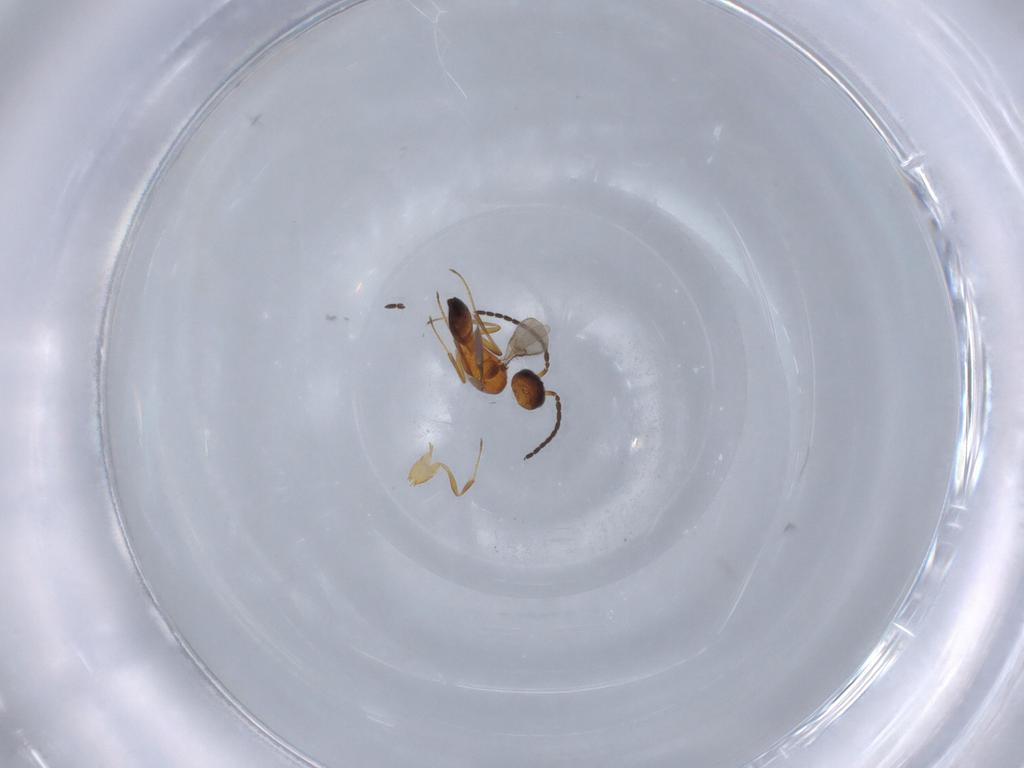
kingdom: Animalia
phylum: Arthropoda
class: Insecta
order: Hymenoptera
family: Scelionidae
